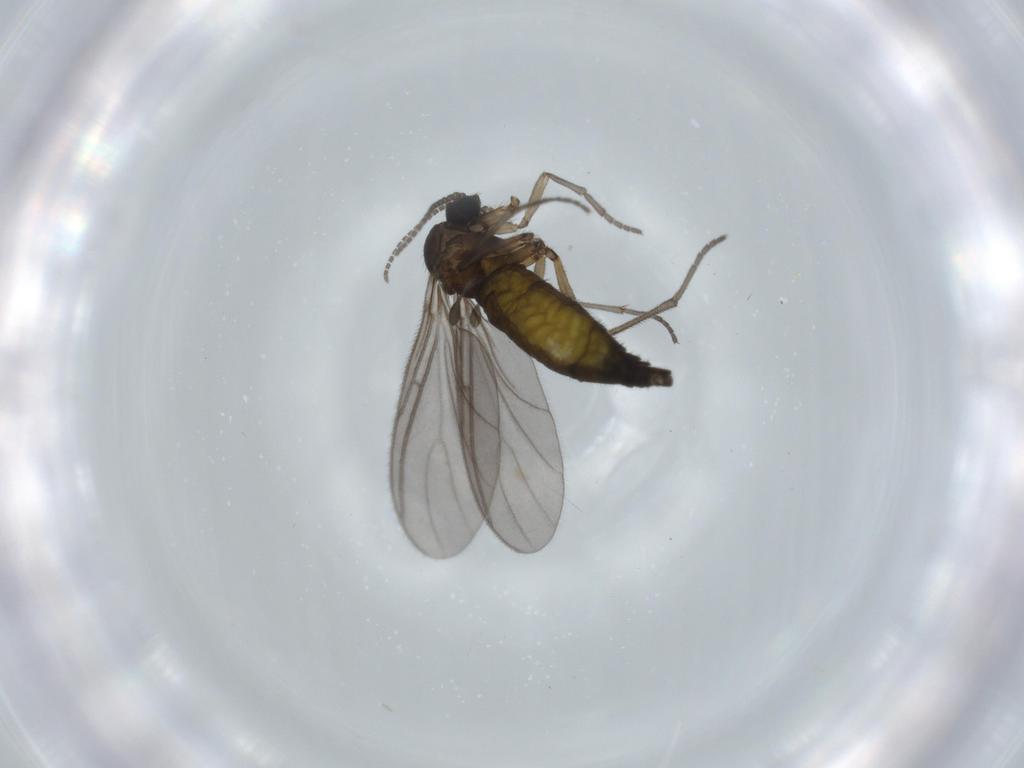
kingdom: Animalia
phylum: Arthropoda
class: Insecta
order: Diptera
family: Sciaridae
